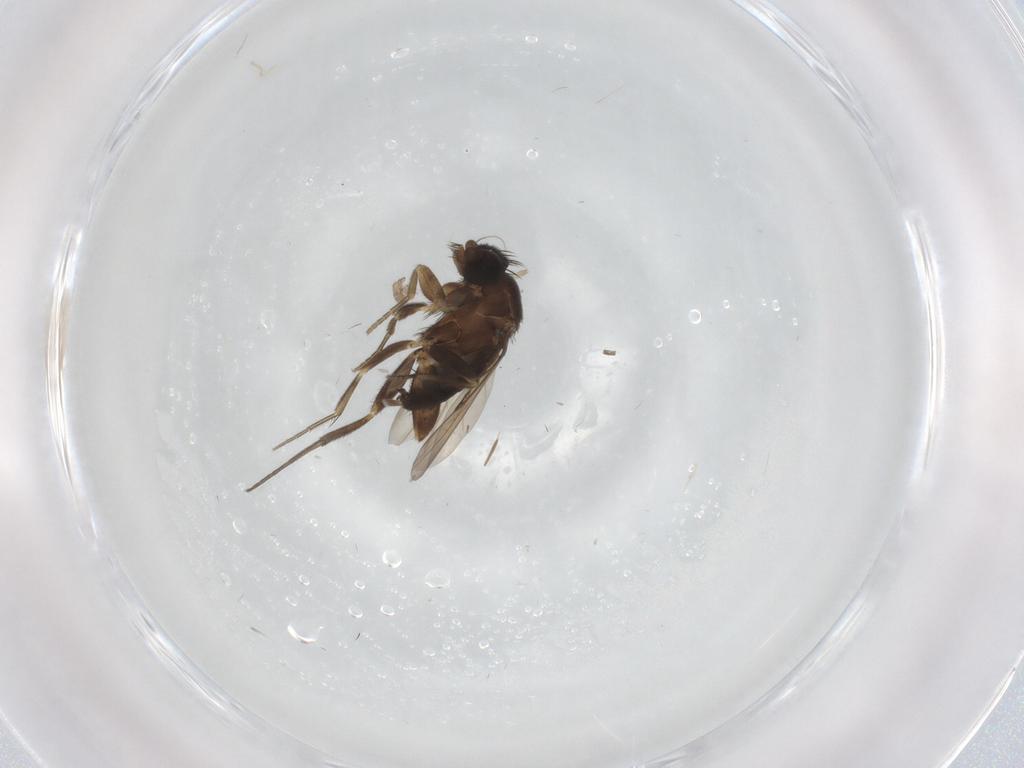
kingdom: Animalia
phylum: Arthropoda
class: Insecta
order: Diptera
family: Phoridae
